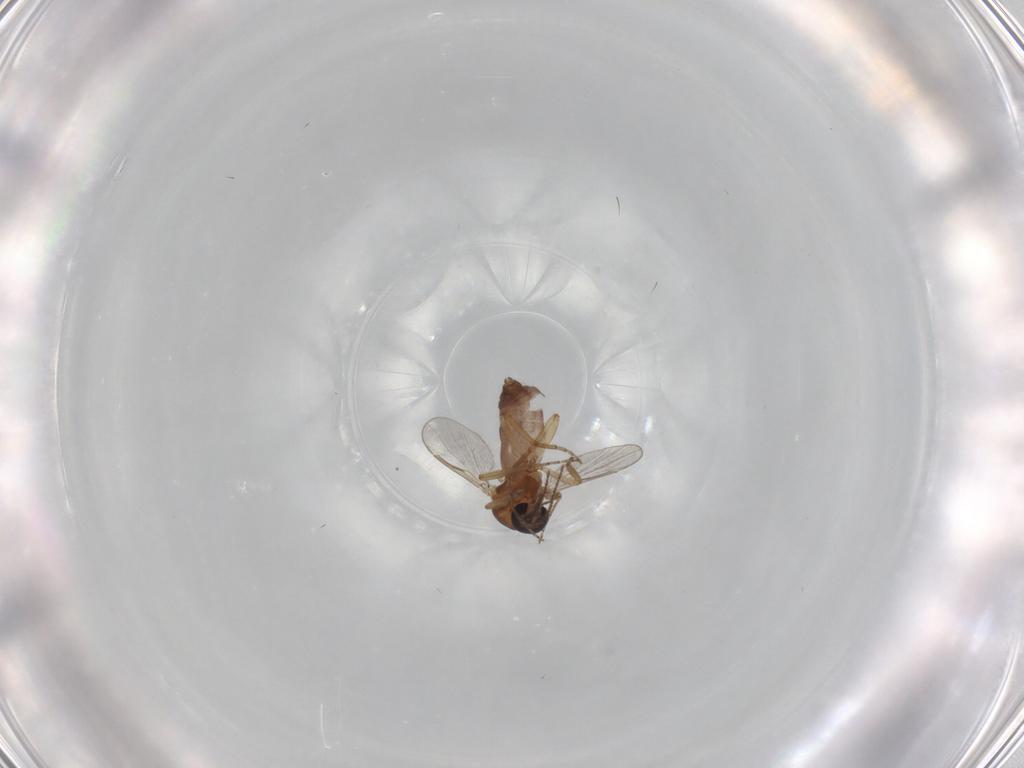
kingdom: Animalia
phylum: Arthropoda
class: Insecta
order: Diptera
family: Ceratopogonidae
